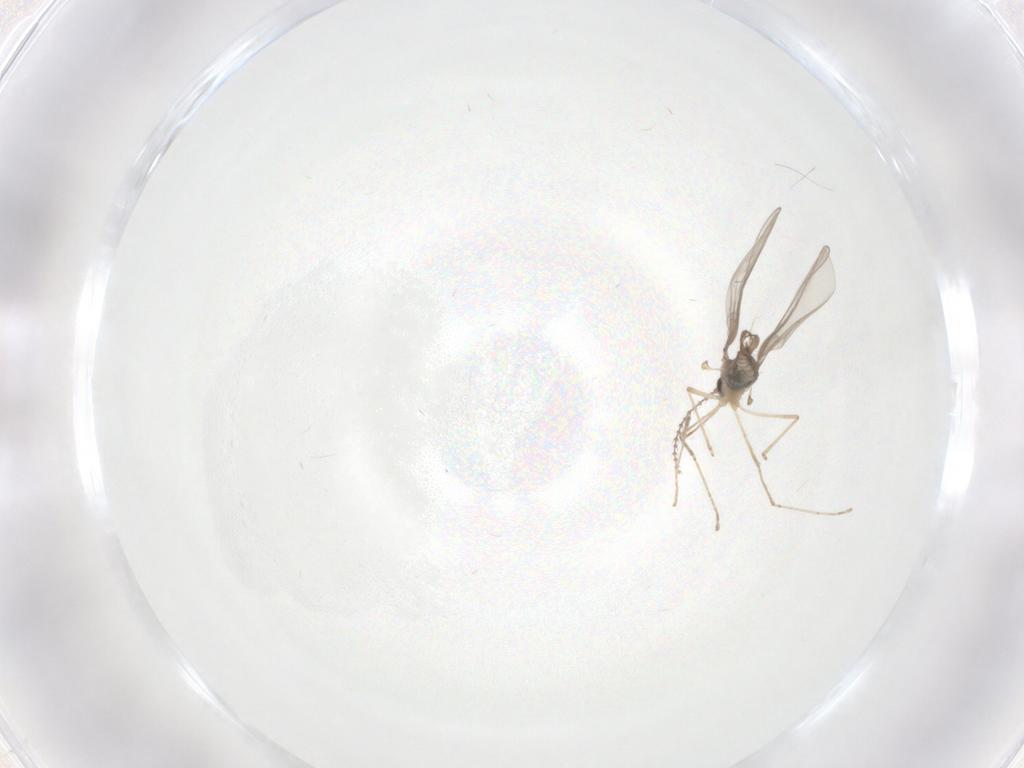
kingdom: Animalia
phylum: Arthropoda
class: Insecta
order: Diptera
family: Cecidomyiidae
